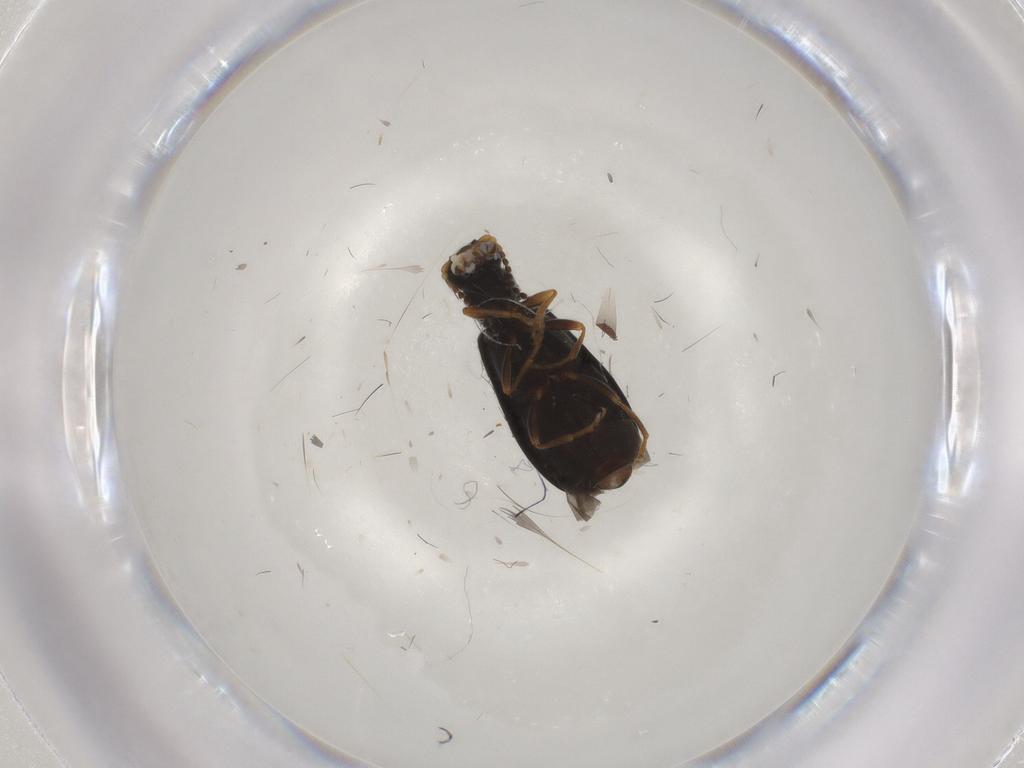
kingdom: Animalia
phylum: Arthropoda
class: Insecta
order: Coleoptera
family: Mycteridae
